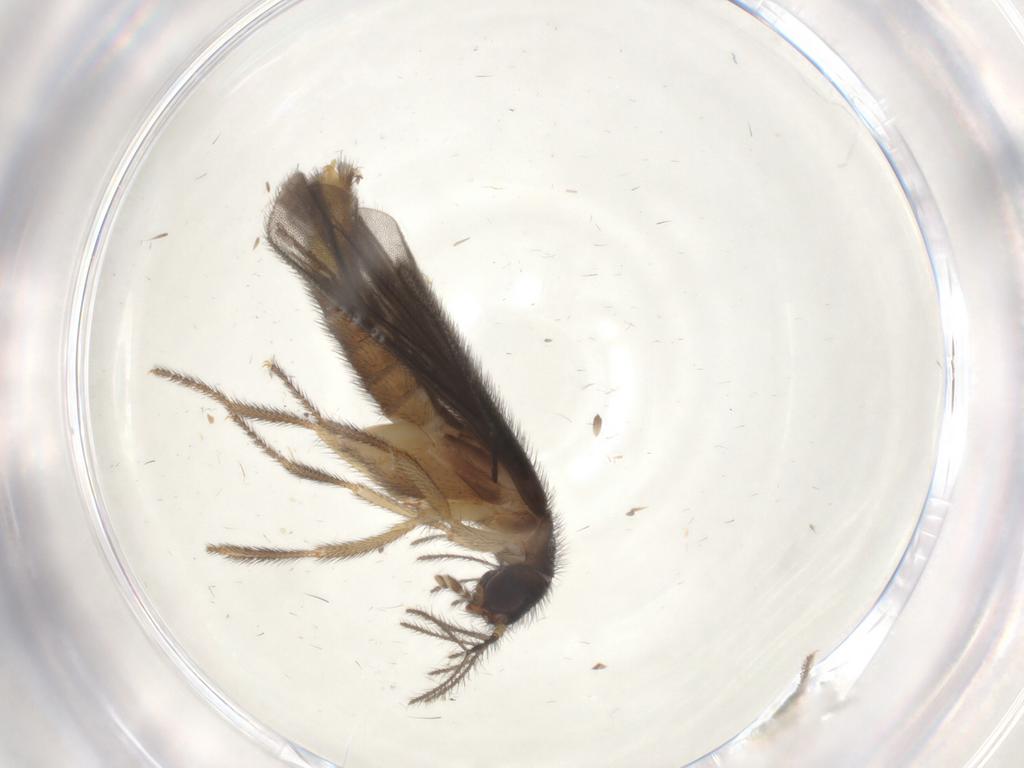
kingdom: Animalia
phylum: Arthropoda
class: Insecta
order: Coleoptera
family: Phengodidae
